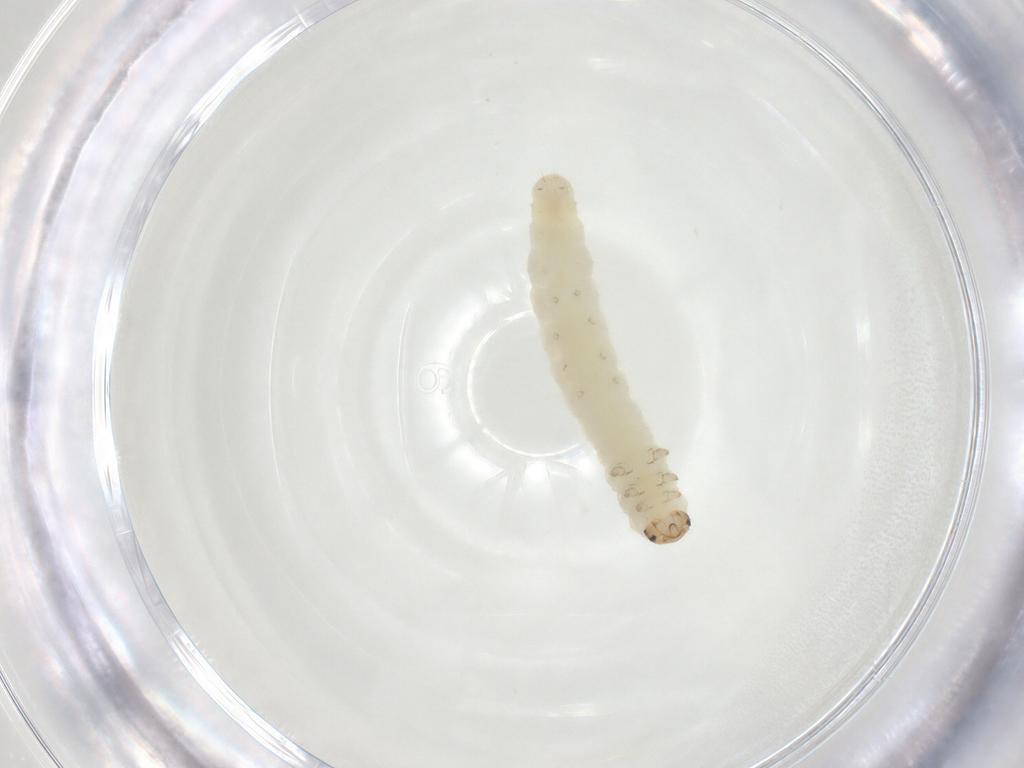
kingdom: Animalia
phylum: Arthropoda
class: Insecta
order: Lepidoptera
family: Gelechiidae
